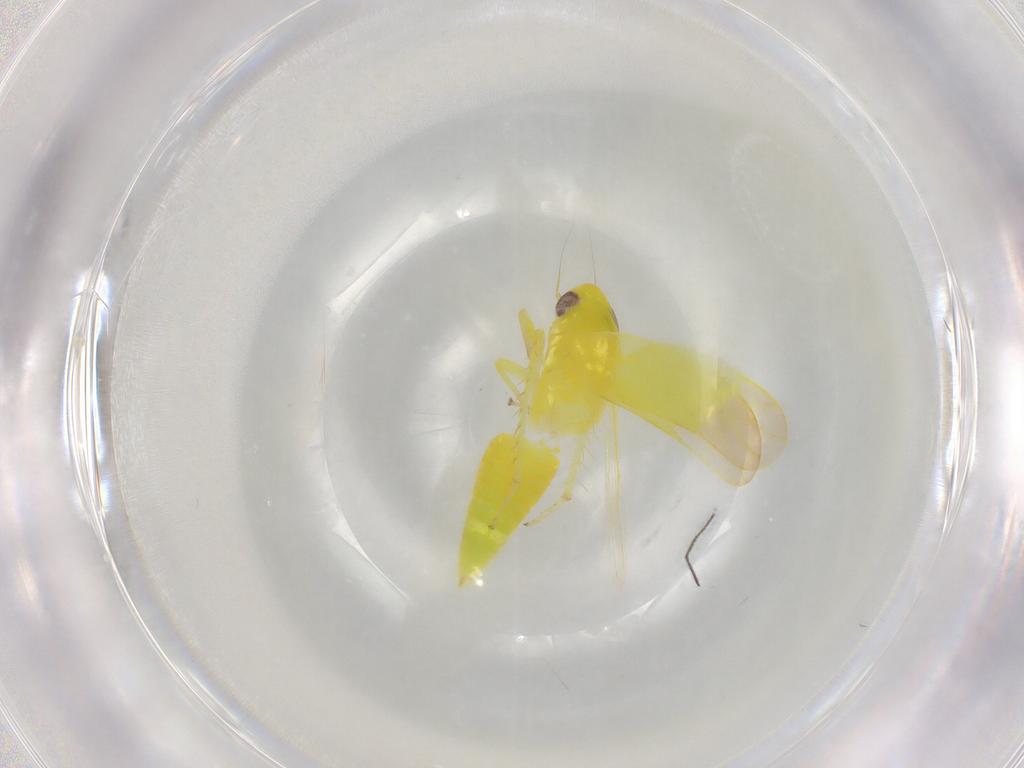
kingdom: Animalia
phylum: Arthropoda
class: Insecta
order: Hemiptera
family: Cicadellidae
